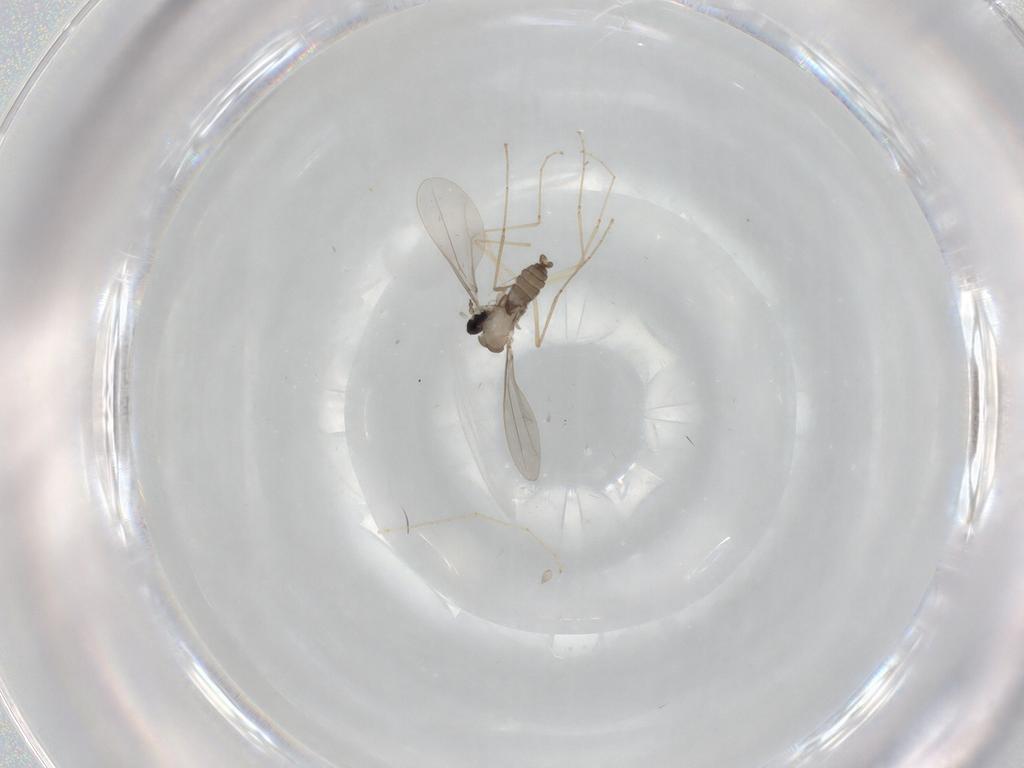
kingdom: Animalia
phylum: Arthropoda
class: Insecta
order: Diptera
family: Cecidomyiidae
